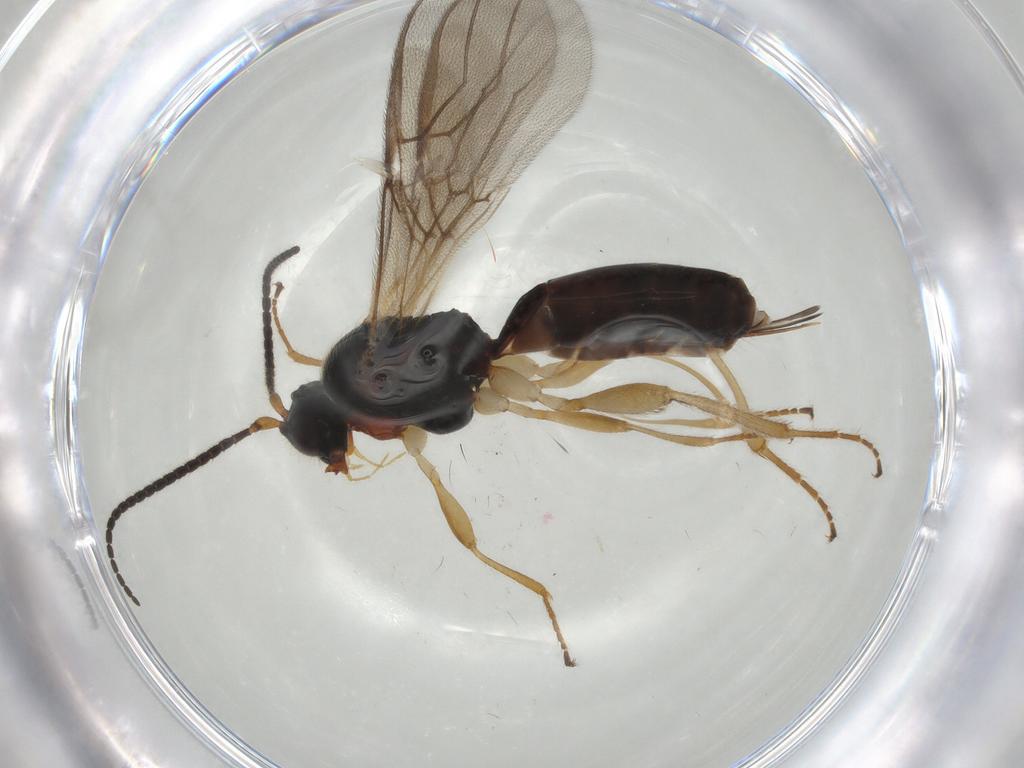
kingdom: Animalia
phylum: Arthropoda
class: Insecta
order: Hymenoptera
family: Braconidae
